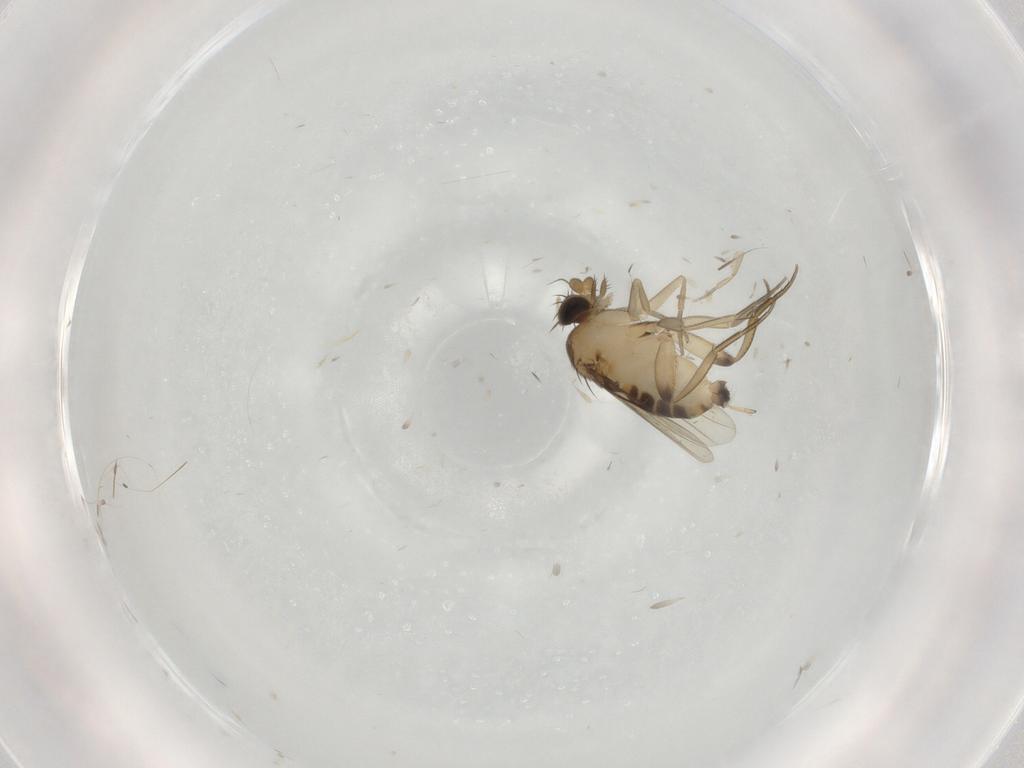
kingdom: Animalia
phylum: Arthropoda
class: Insecta
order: Diptera
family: Phoridae
